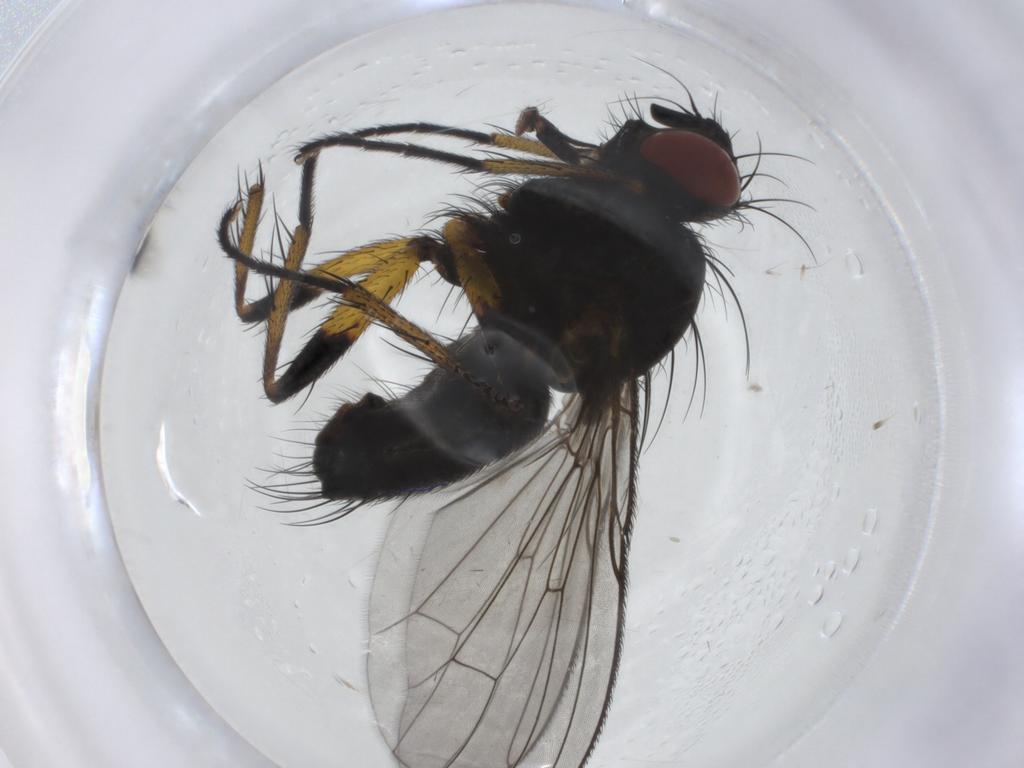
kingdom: Animalia
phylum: Arthropoda
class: Insecta
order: Diptera
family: Muscidae
